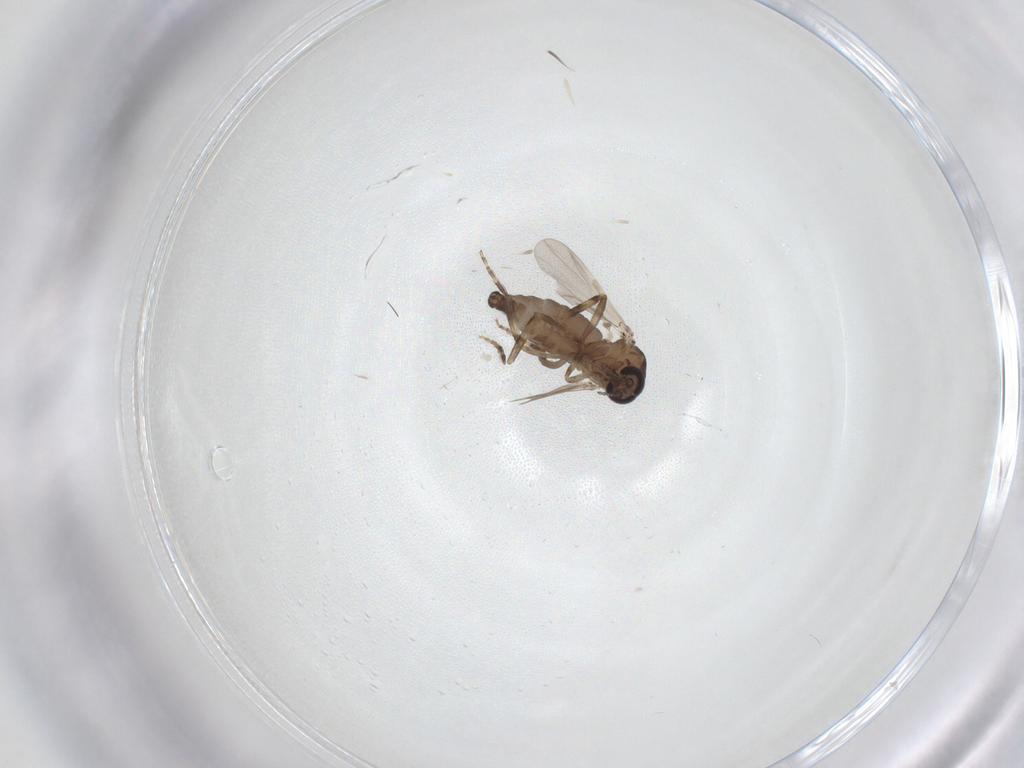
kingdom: Animalia
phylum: Arthropoda
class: Insecta
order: Diptera
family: Ceratopogonidae
